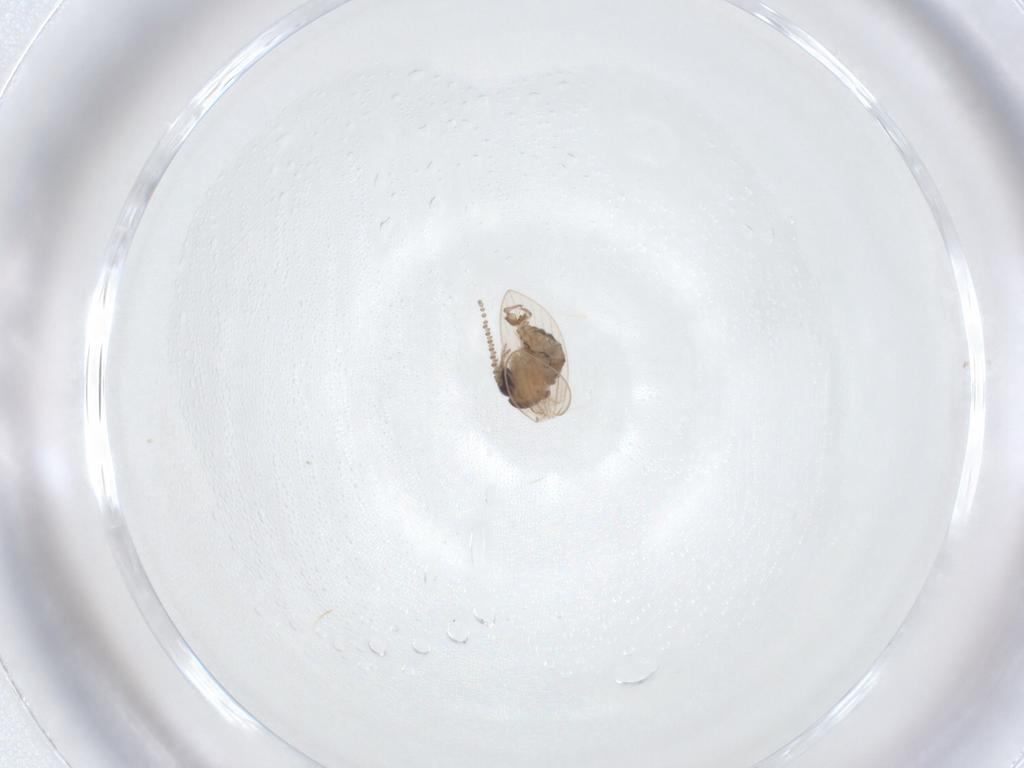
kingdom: Animalia
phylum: Arthropoda
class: Insecta
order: Diptera
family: Psychodidae
